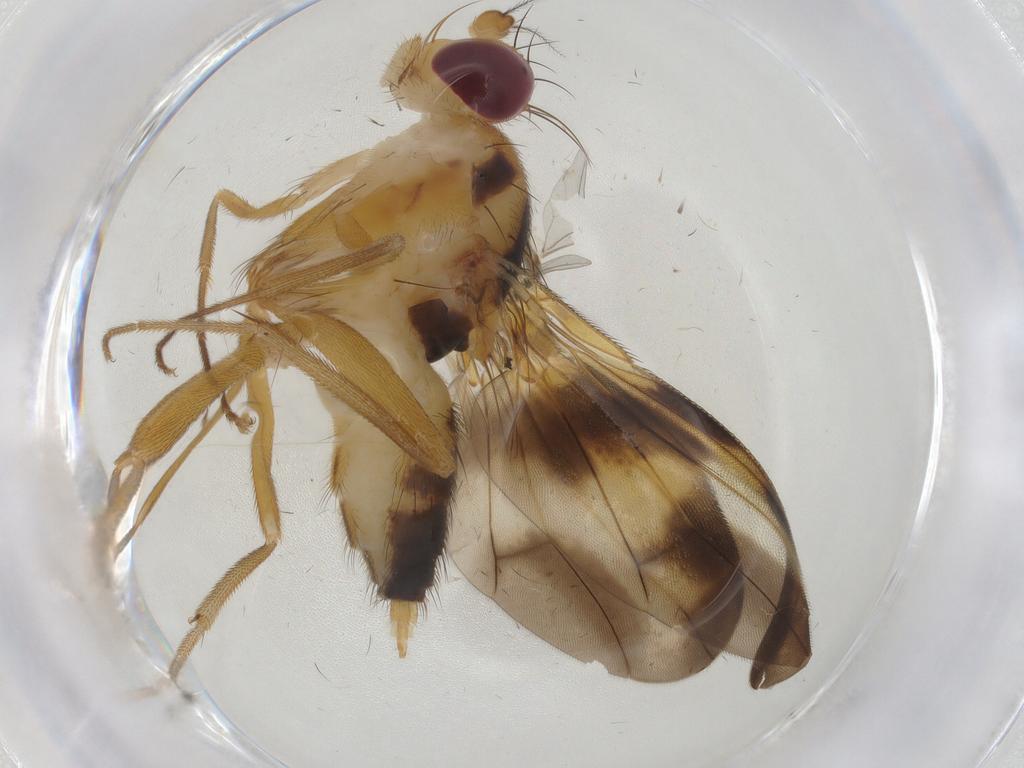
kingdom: Animalia
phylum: Arthropoda
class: Insecta
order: Diptera
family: Clusiidae
